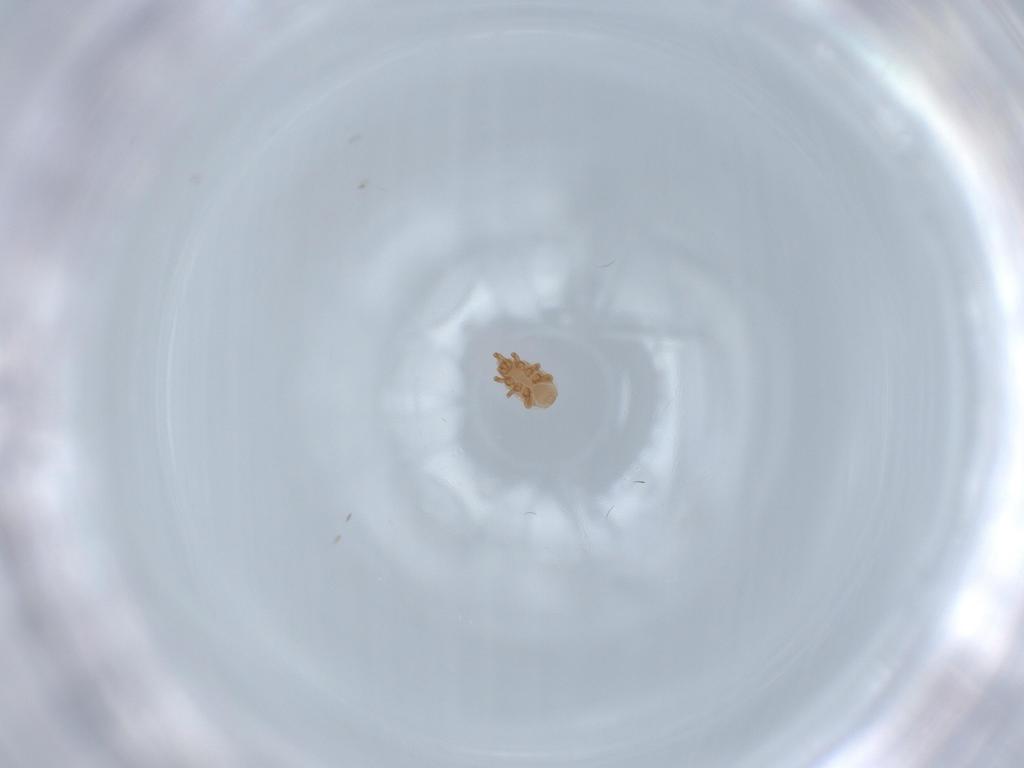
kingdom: Animalia
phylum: Arthropoda
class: Arachnida
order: Mesostigmata
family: Dinychidae
